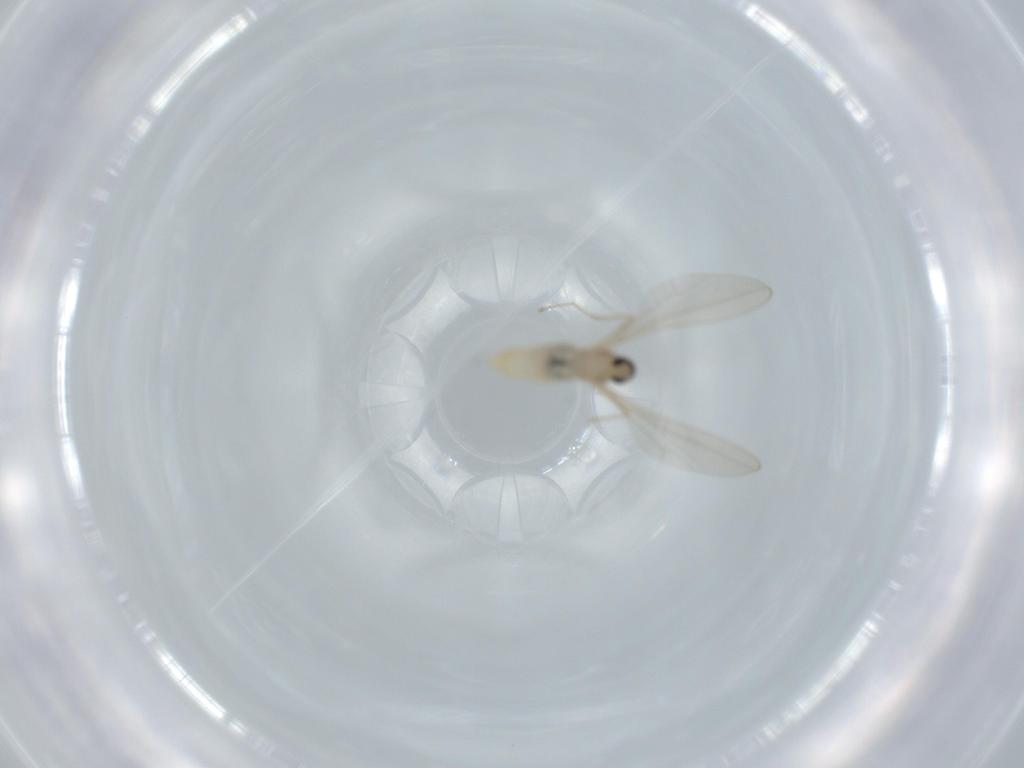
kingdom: Animalia
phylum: Arthropoda
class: Insecta
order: Diptera
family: Cecidomyiidae
